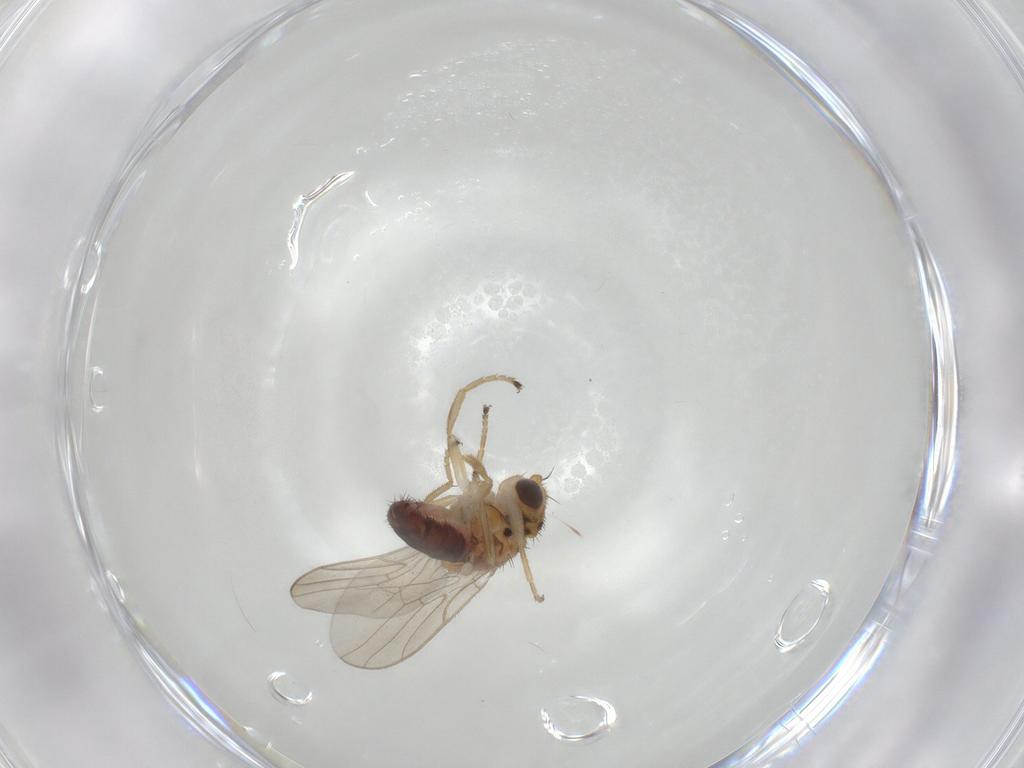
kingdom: Animalia
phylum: Arthropoda
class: Insecta
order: Diptera
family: Chloropidae
